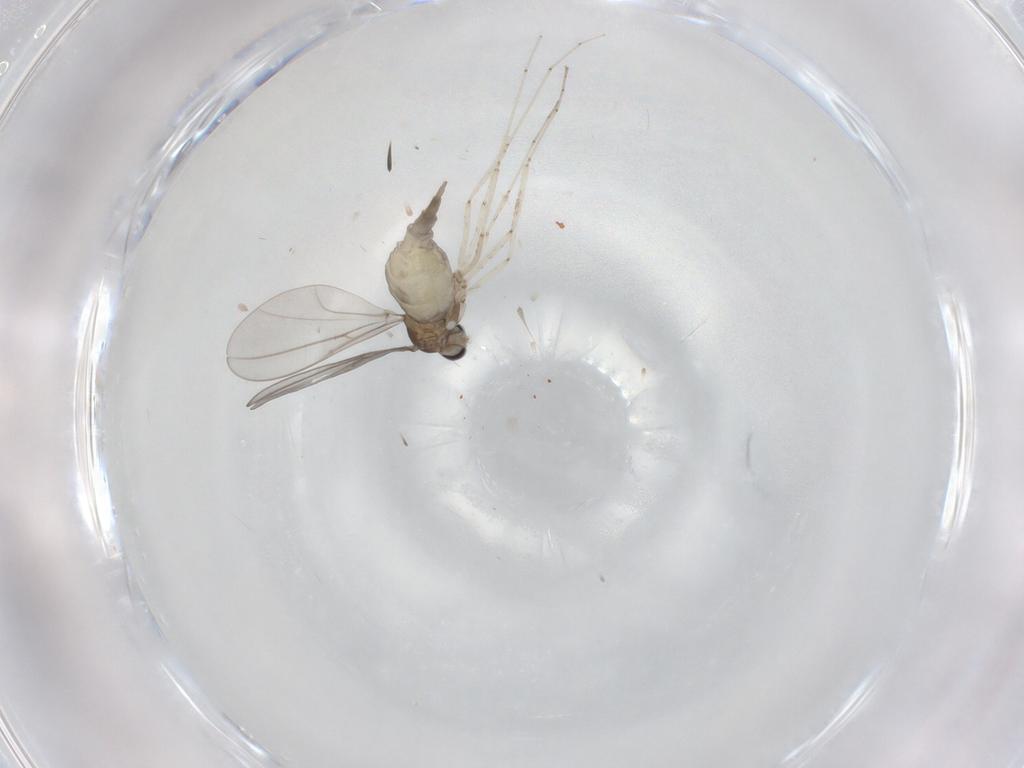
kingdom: Animalia
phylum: Arthropoda
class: Insecta
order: Diptera
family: Cecidomyiidae
